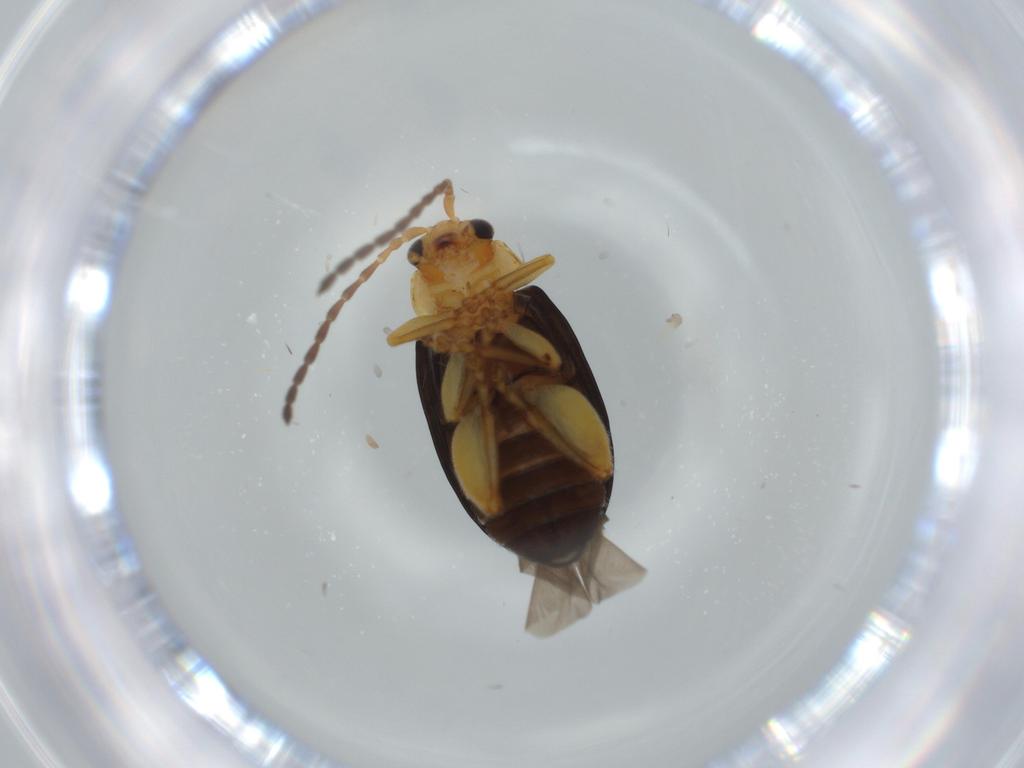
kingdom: Animalia
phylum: Arthropoda
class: Insecta
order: Coleoptera
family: Chrysomelidae
